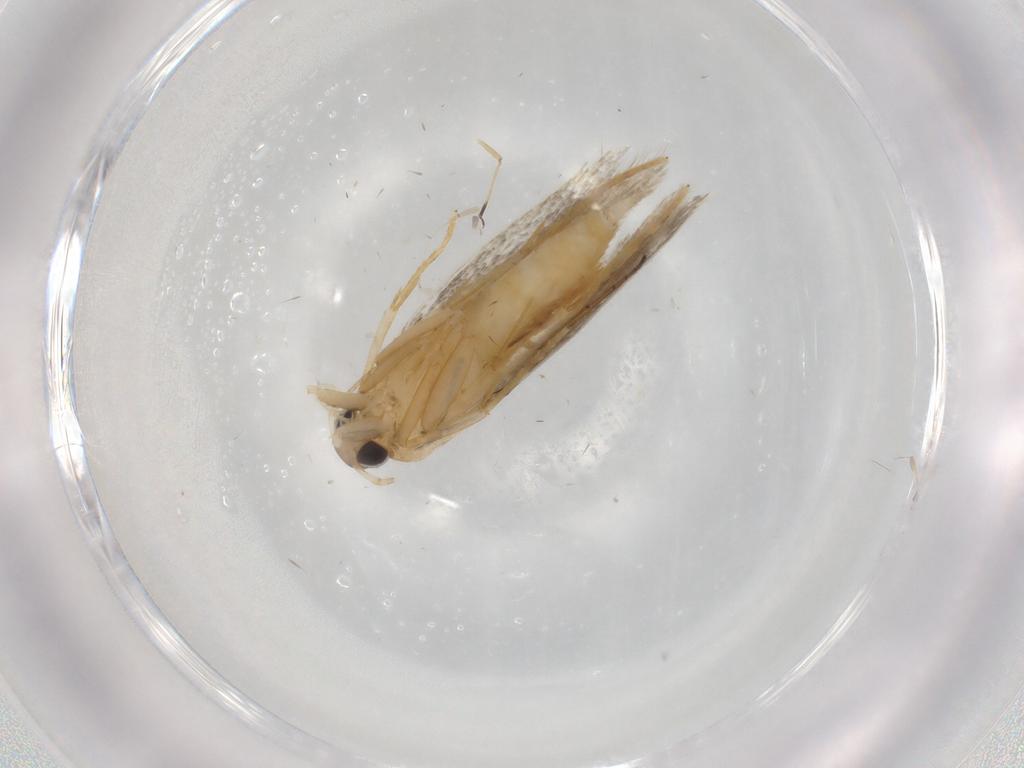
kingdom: Animalia
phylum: Arthropoda
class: Insecta
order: Lepidoptera
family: Autostichidae
